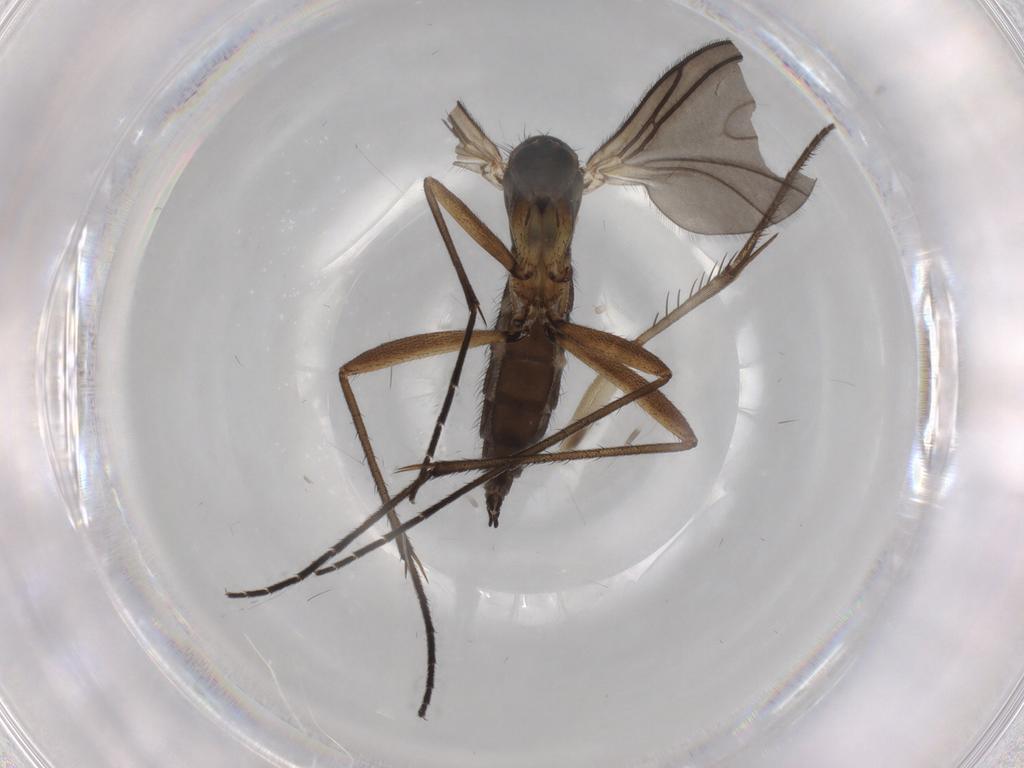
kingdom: Animalia
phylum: Arthropoda
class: Insecta
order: Diptera
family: Sciaridae
